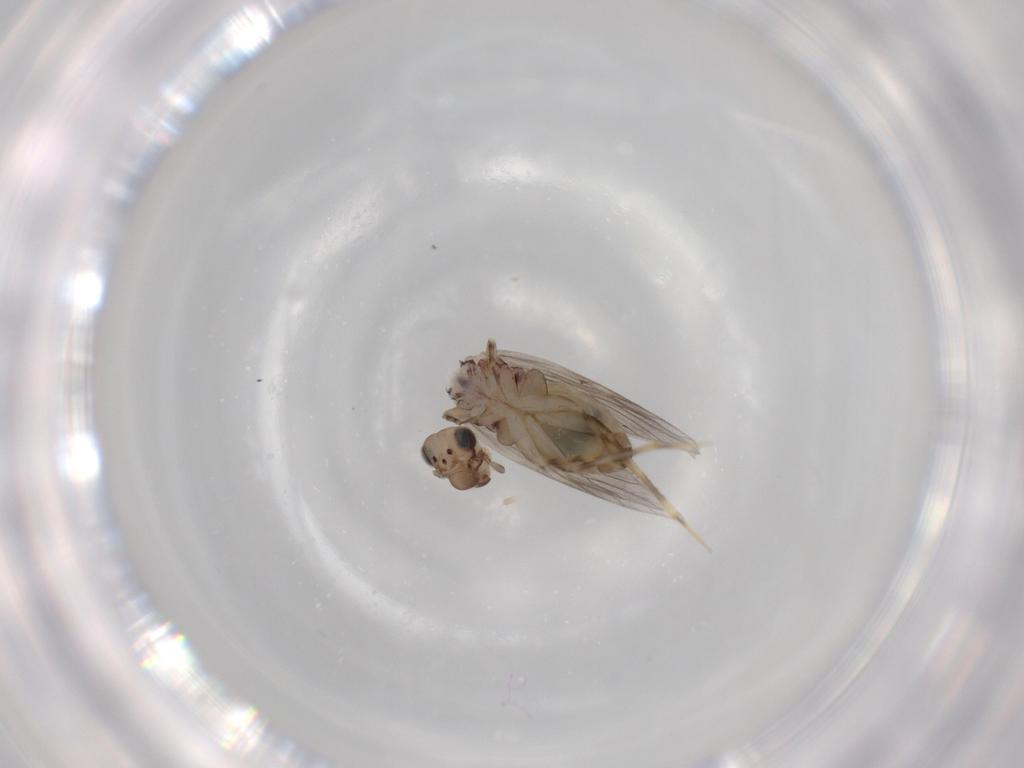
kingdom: Animalia
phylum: Arthropoda
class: Insecta
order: Psocodea
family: Lepidopsocidae
